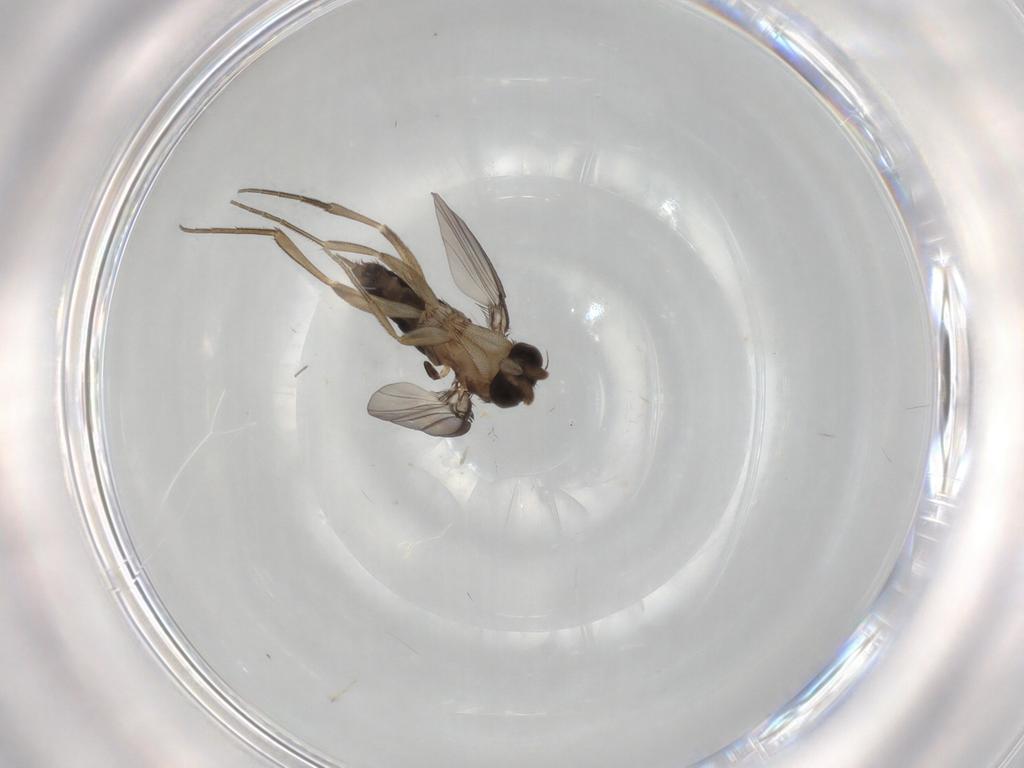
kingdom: Animalia
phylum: Arthropoda
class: Insecta
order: Diptera
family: Phoridae
